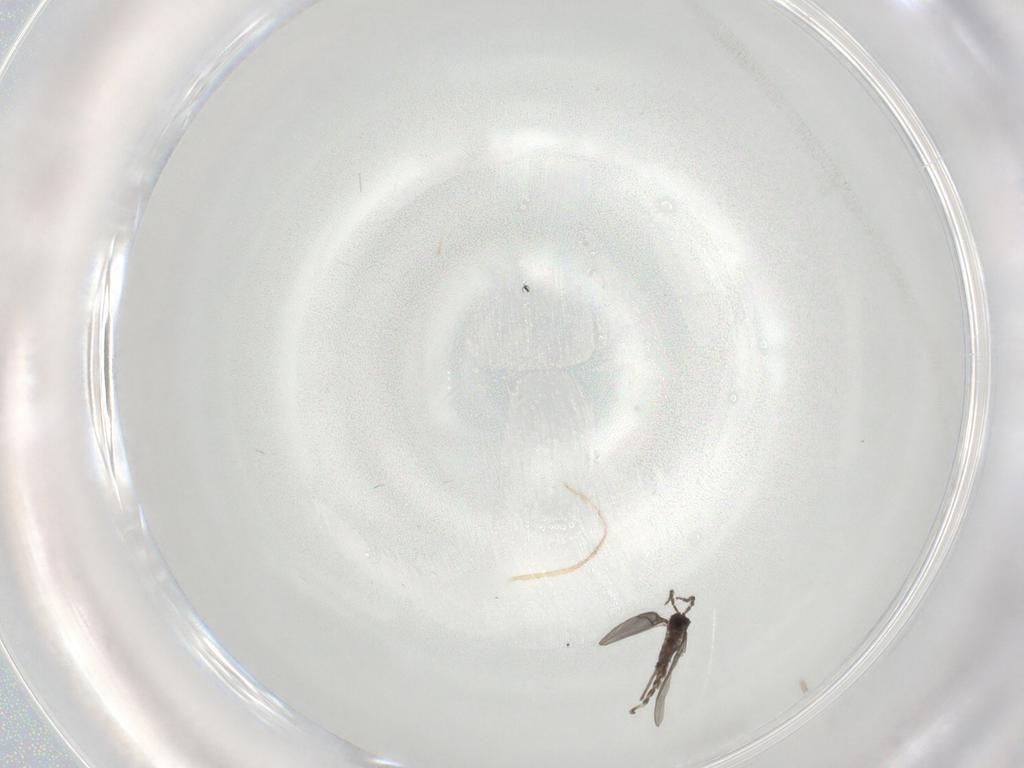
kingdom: Animalia
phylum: Arthropoda
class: Insecta
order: Diptera
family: Sciaridae
